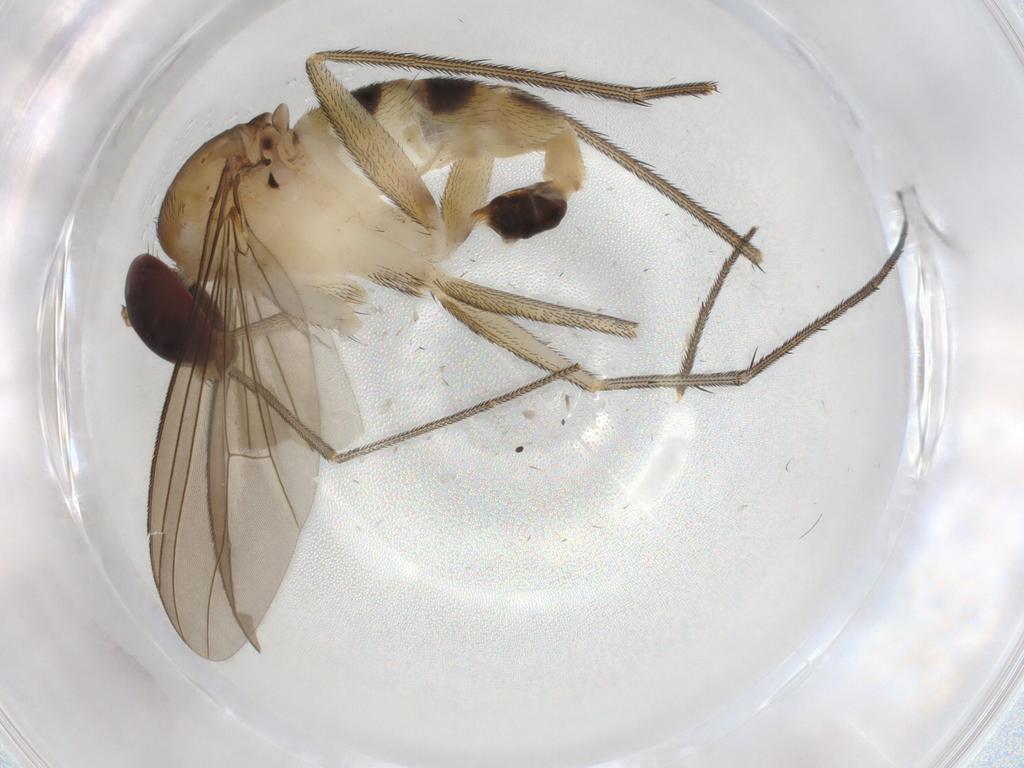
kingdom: Animalia
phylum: Arthropoda
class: Insecta
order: Diptera
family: Dolichopodidae
